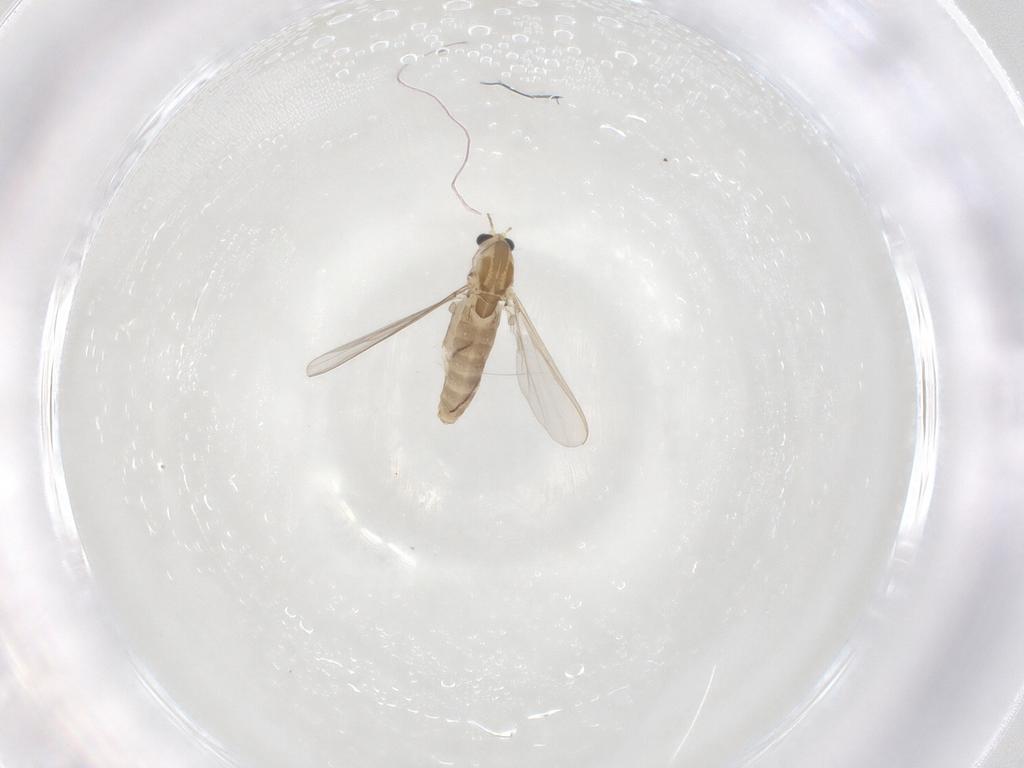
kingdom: Animalia
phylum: Arthropoda
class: Insecta
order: Diptera
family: Chironomidae
